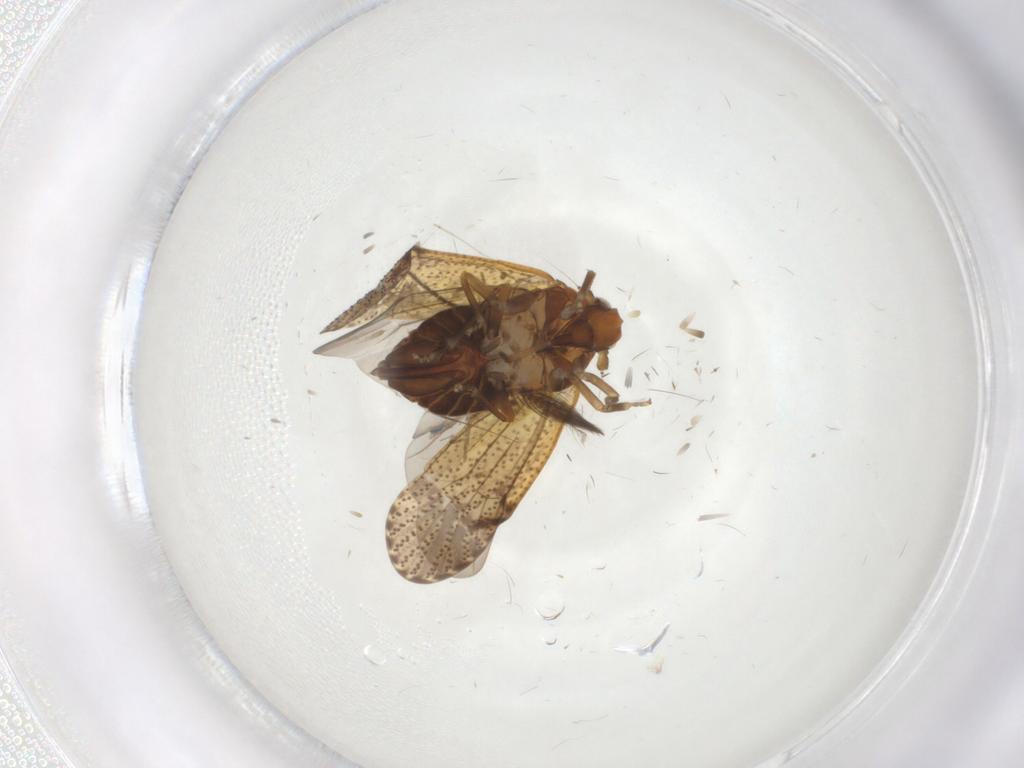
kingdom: Animalia
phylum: Arthropoda
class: Insecta
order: Hemiptera
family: Delphacidae
